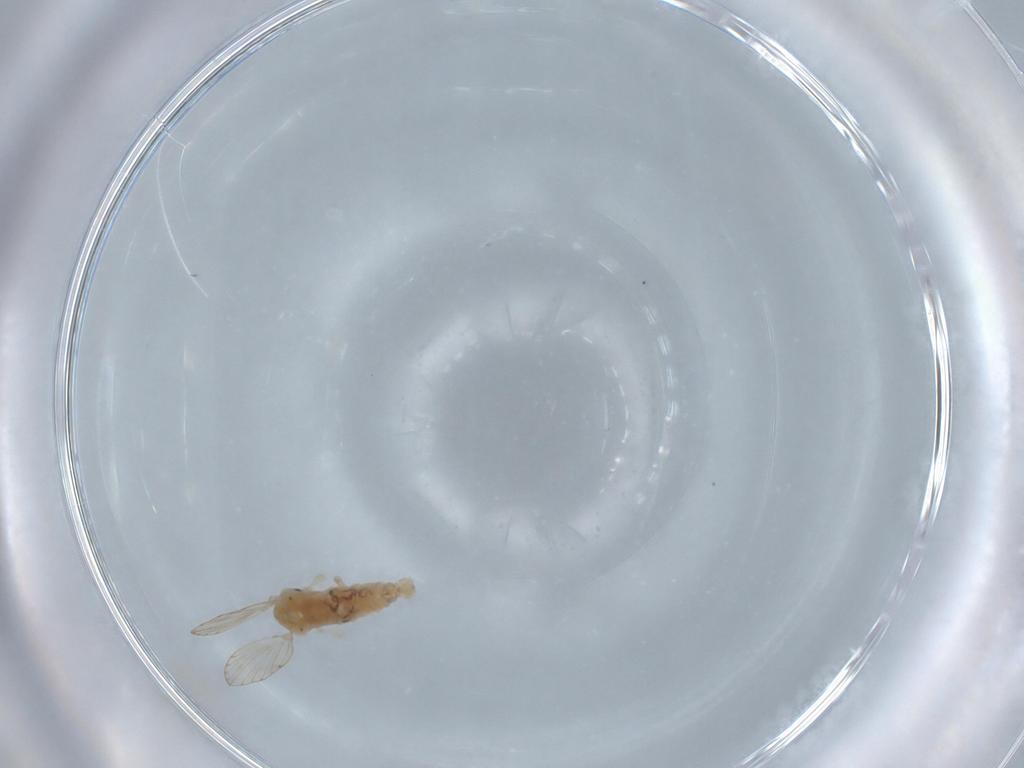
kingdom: Animalia
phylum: Arthropoda
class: Insecta
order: Diptera
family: Psychodidae
